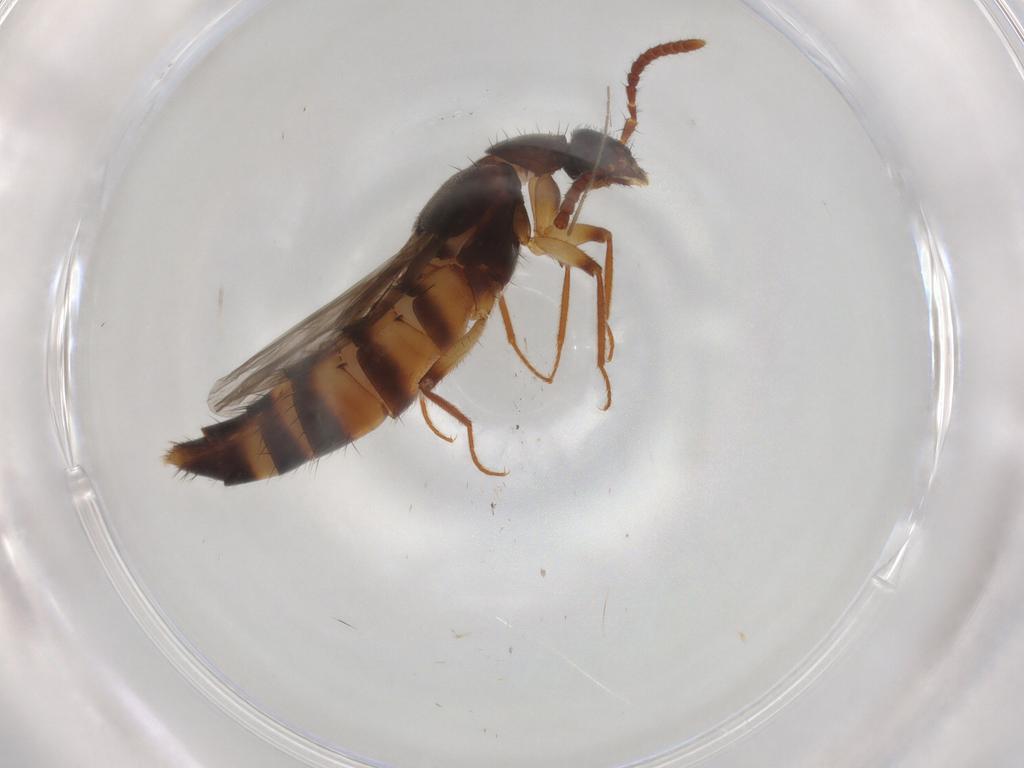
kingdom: Animalia
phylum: Arthropoda
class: Insecta
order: Coleoptera
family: Staphylinidae
